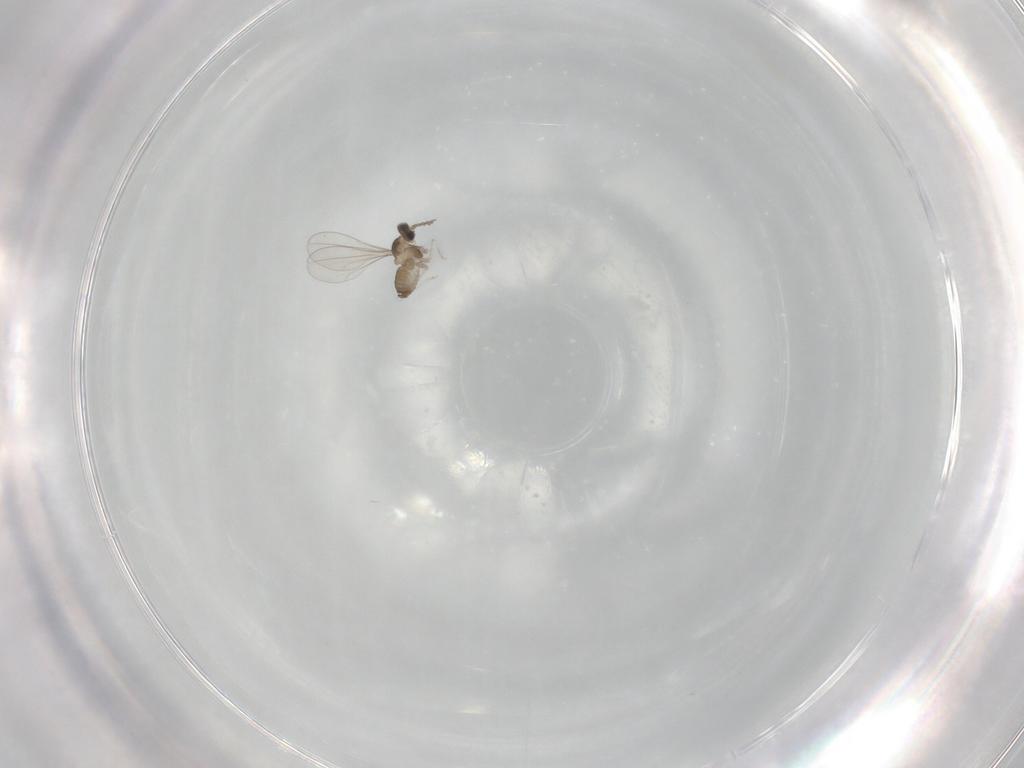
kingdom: Animalia
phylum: Arthropoda
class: Insecta
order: Diptera
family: Cecidomyiidae
